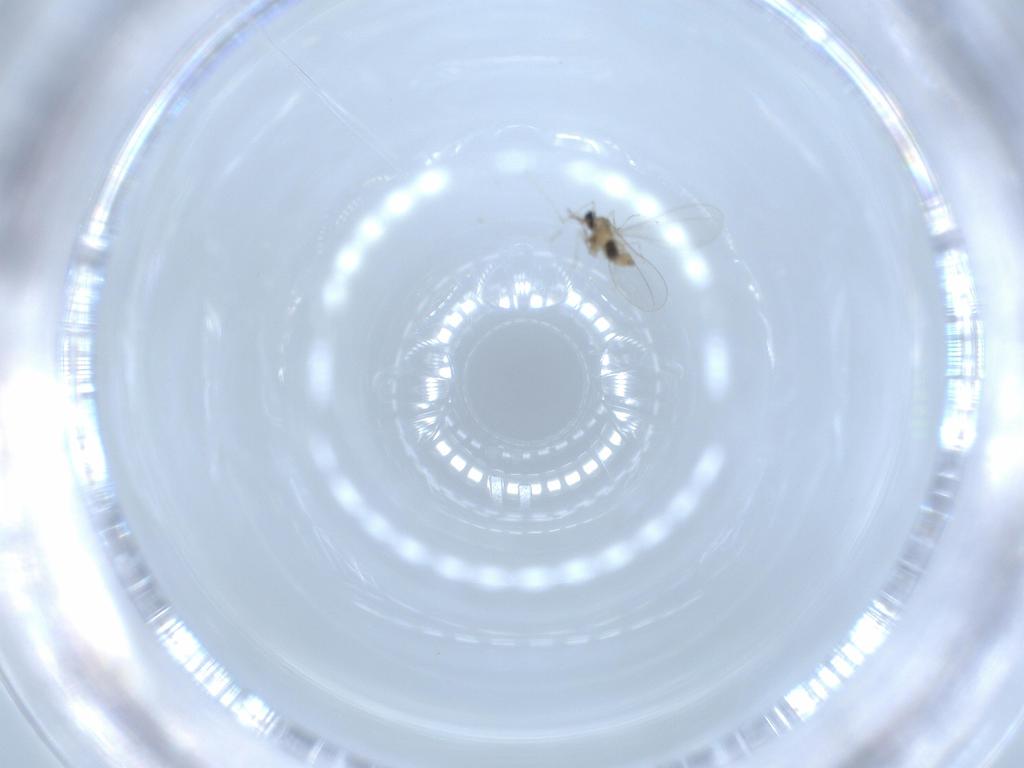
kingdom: Animalia
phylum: Arthropoda
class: Insecta
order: Diptera
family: Cecidomyiidae
